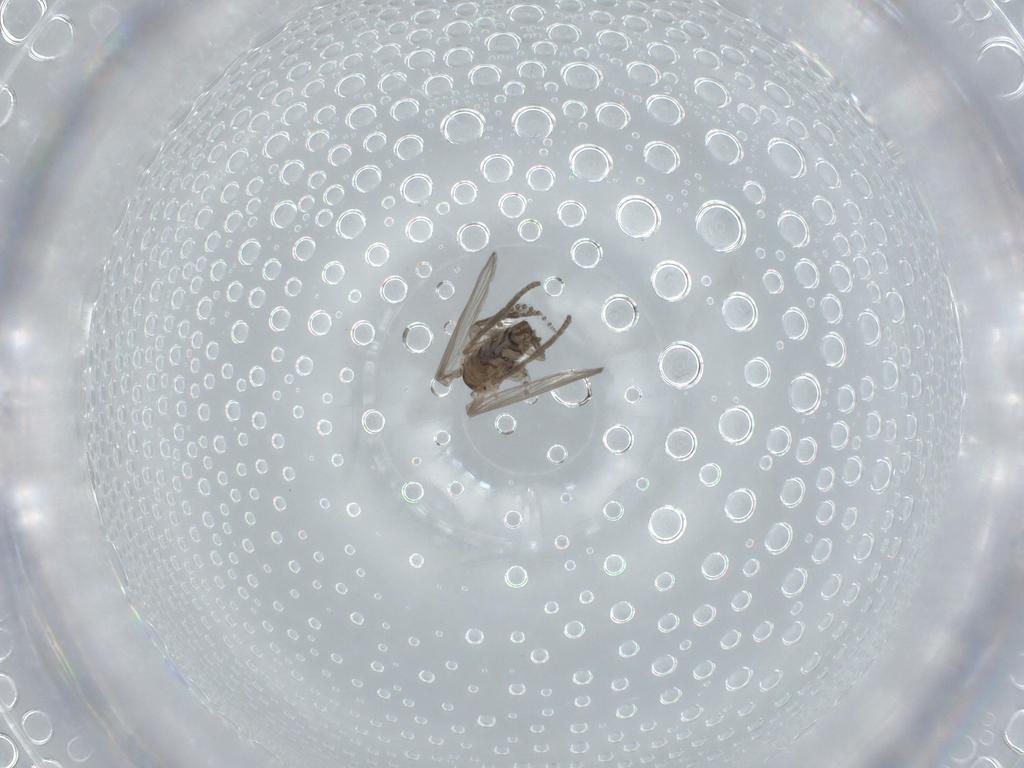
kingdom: Animalia
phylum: Arthropoda
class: Insecta
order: Diptera
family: Psychodidae
